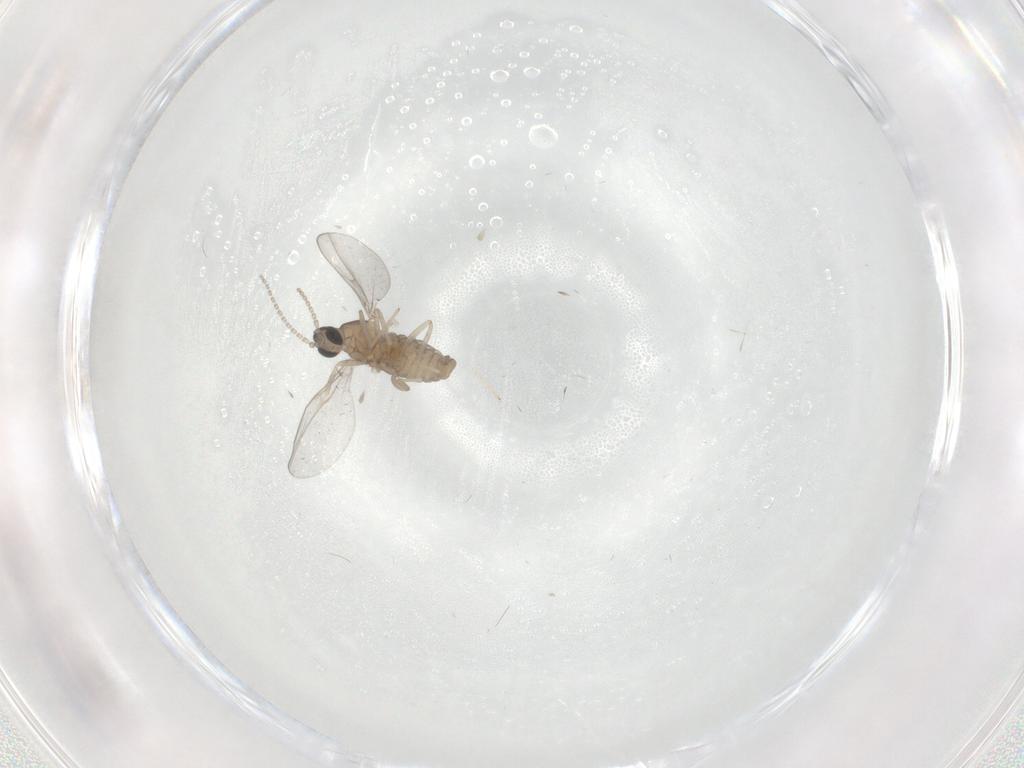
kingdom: Animalia
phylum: Arthropoda
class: Insecta
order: Diptera
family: Cecidomyiidae
